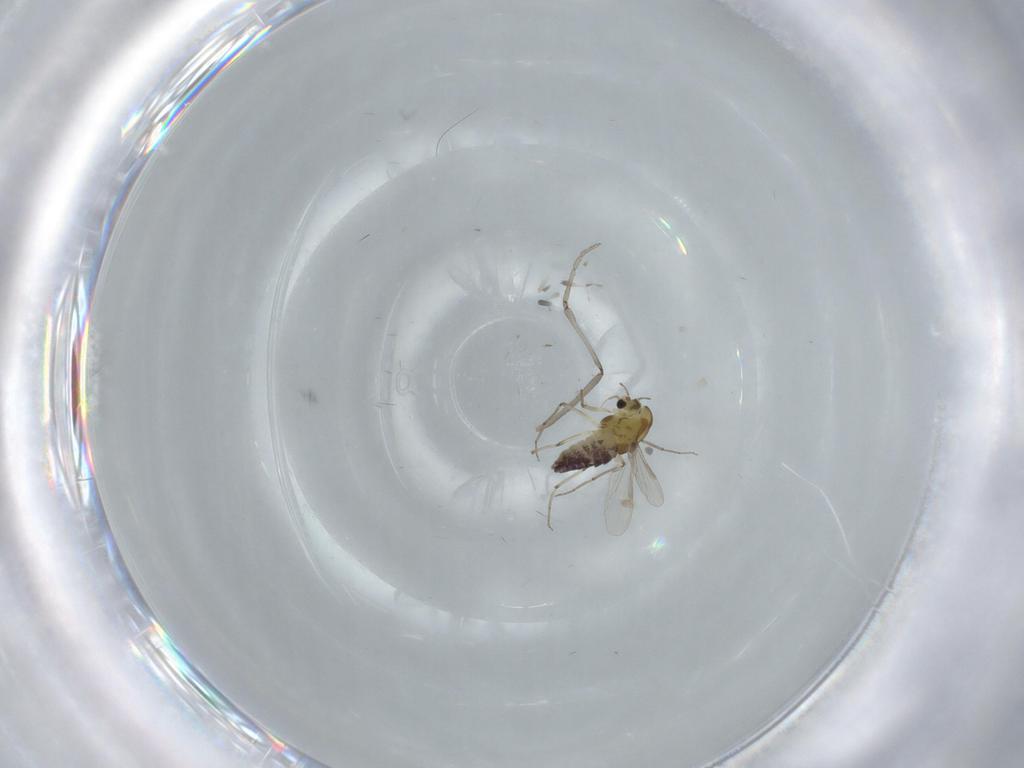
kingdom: Animalia
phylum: Arthropoda
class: Insecta
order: Diptera
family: Chironomidae
